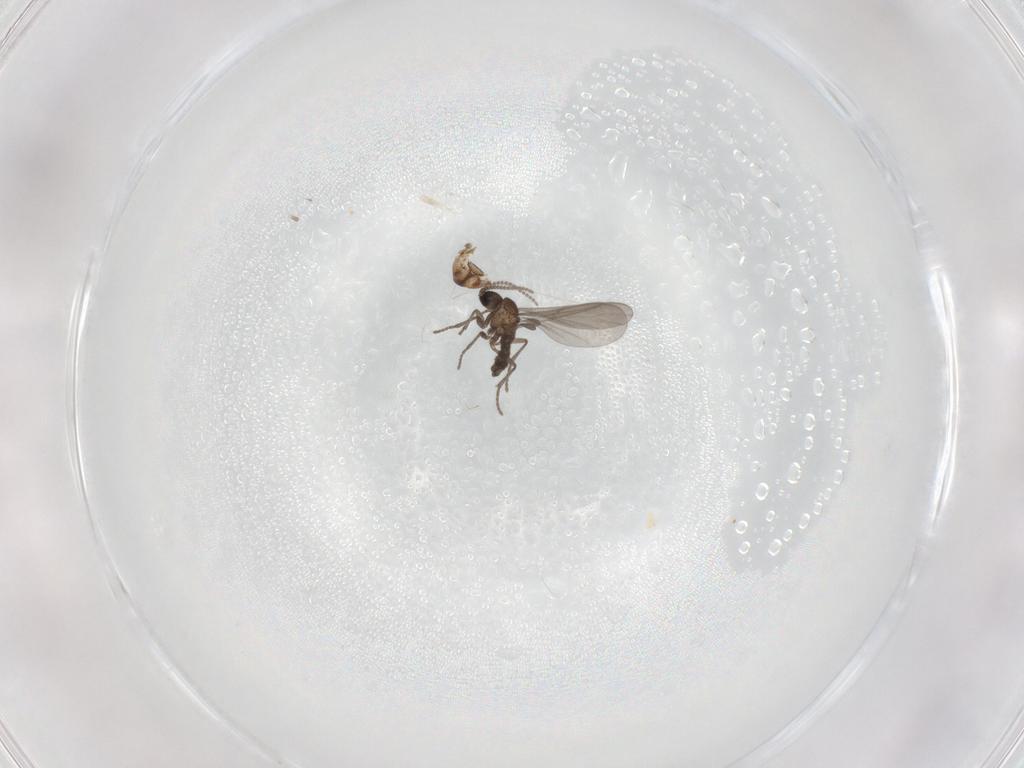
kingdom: Animalia
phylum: Arthropoda
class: Insecta
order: Diptera
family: Chironomidae
